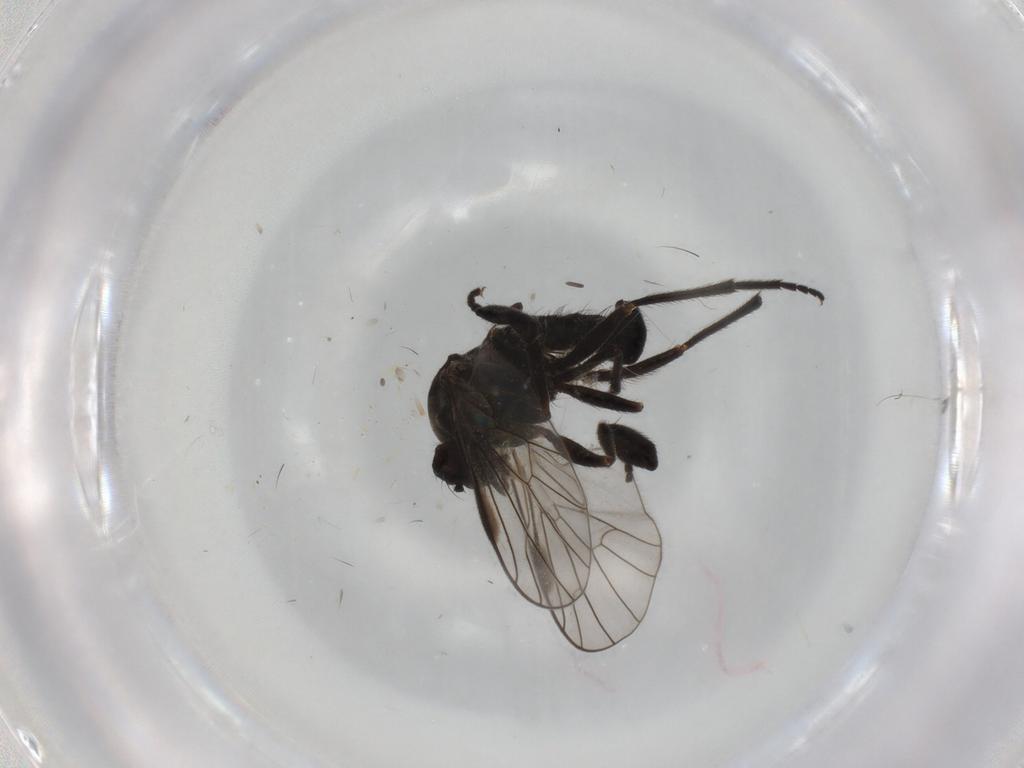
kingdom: Animalia
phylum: Arthropoda
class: Insecta
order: Diptera
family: Empididae
